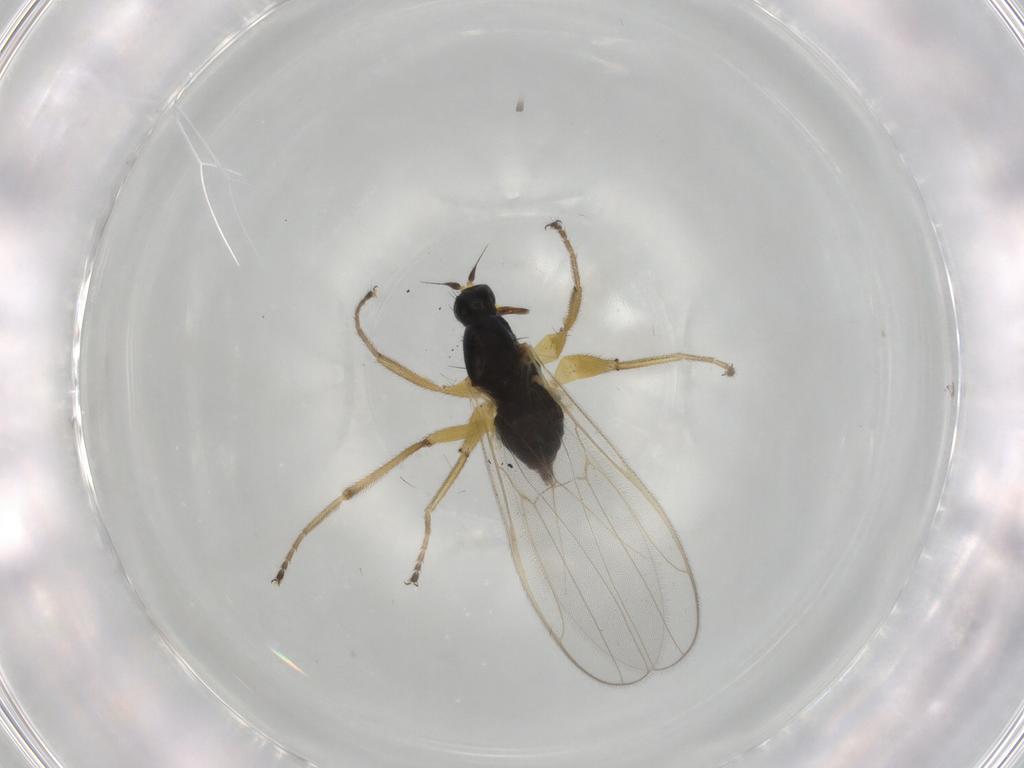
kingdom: Animalia
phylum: Arthropoda
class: Insecta
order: Diptera
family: Hybotidae
